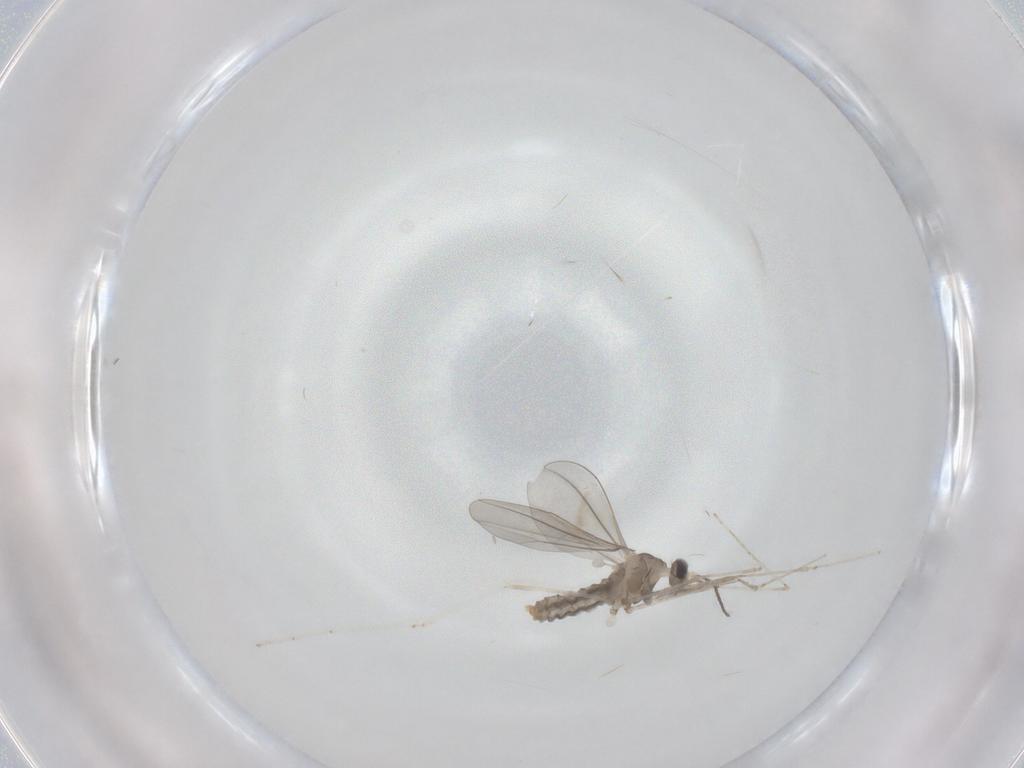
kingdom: Animalia
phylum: Arthropoda
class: Insecta
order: Diptera
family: Cecidomyiidae
